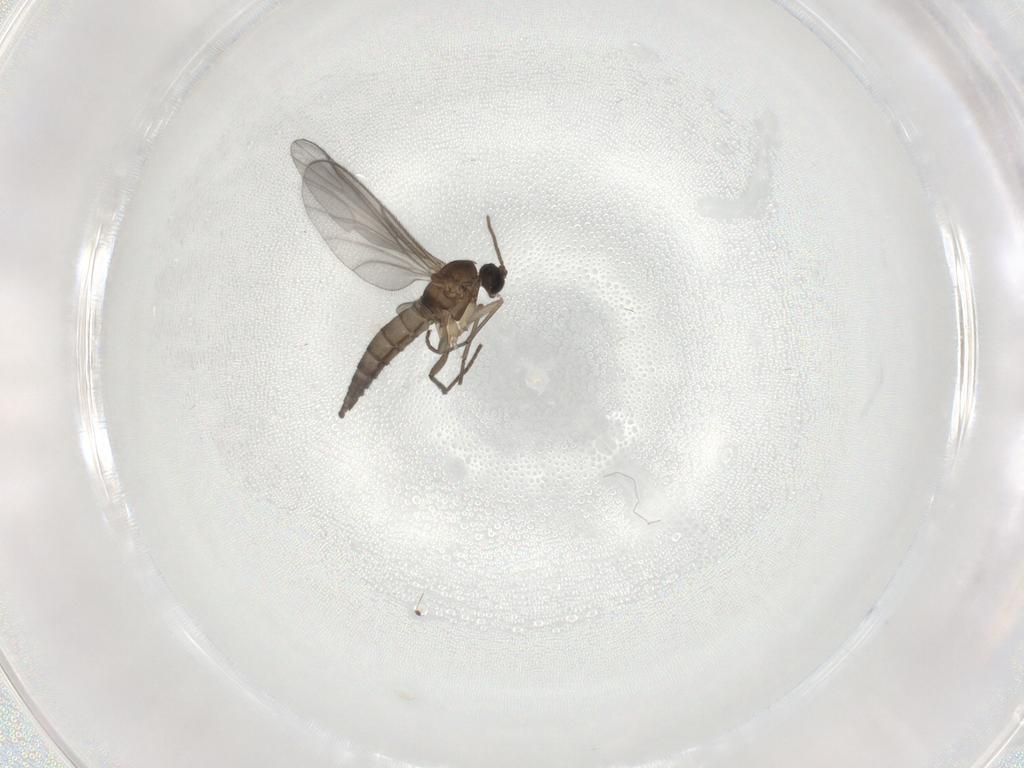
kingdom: Animalia
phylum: Arthropoda
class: Insecta
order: Diptera
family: Sciaridae
